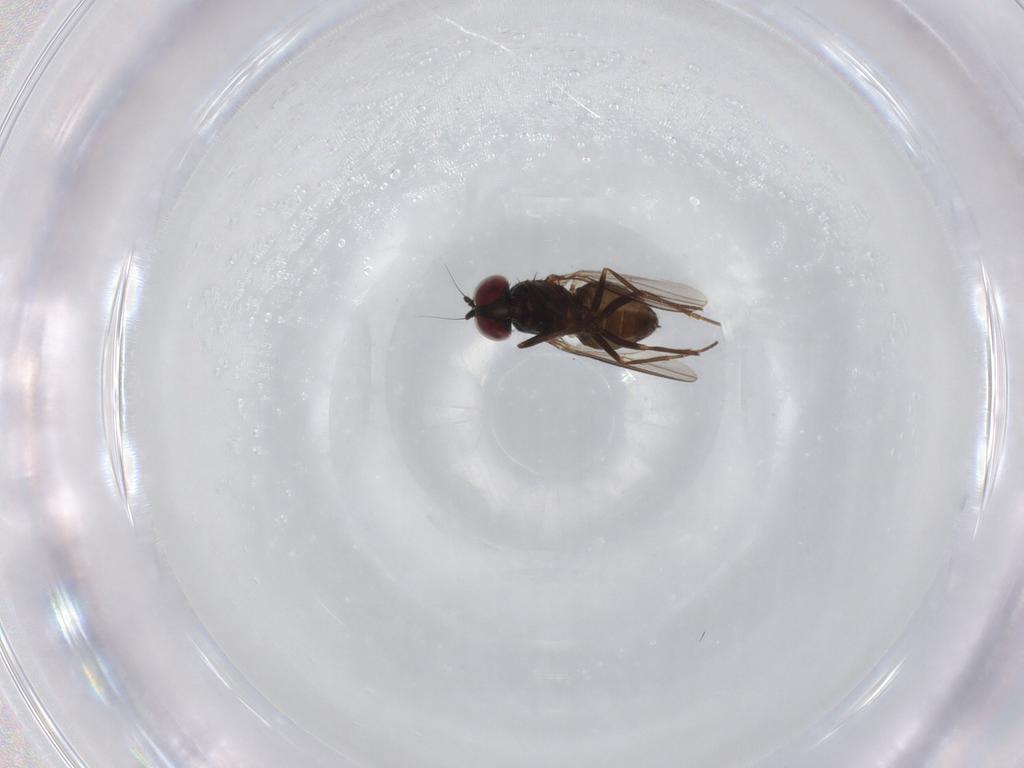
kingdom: Animalia
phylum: Arthropoda
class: Insecta
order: Diptera
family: Dolichopodidae
